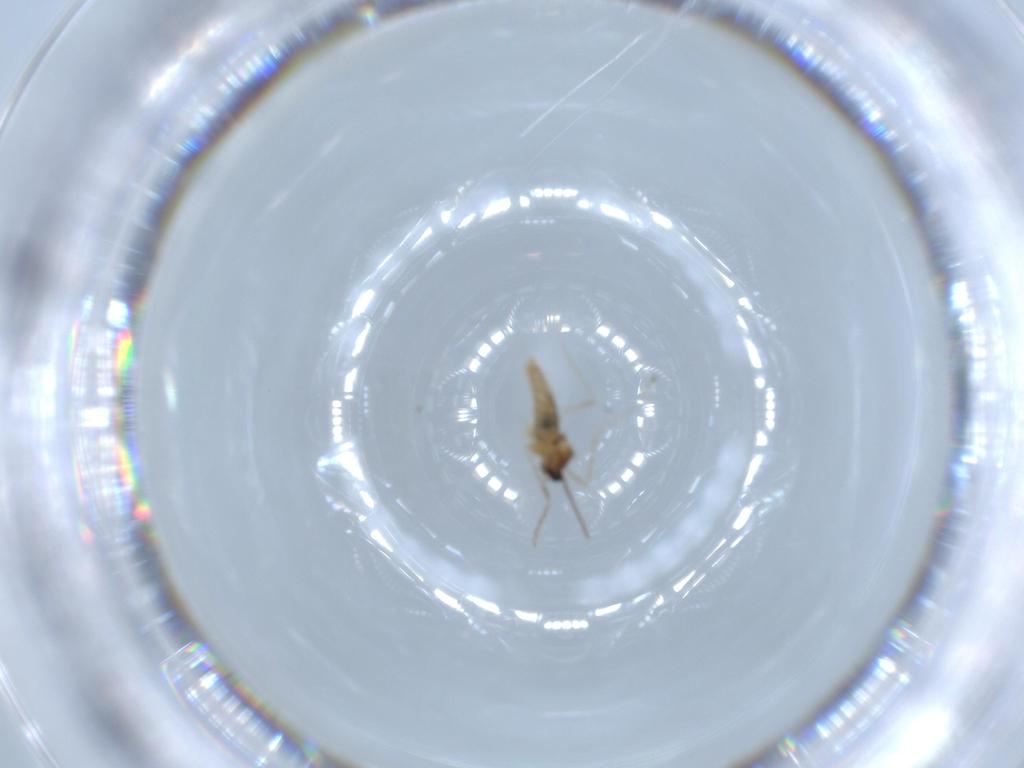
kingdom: Animalia
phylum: Arthropoda
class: Insecta
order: Diptera
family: Cecidomyiidae
